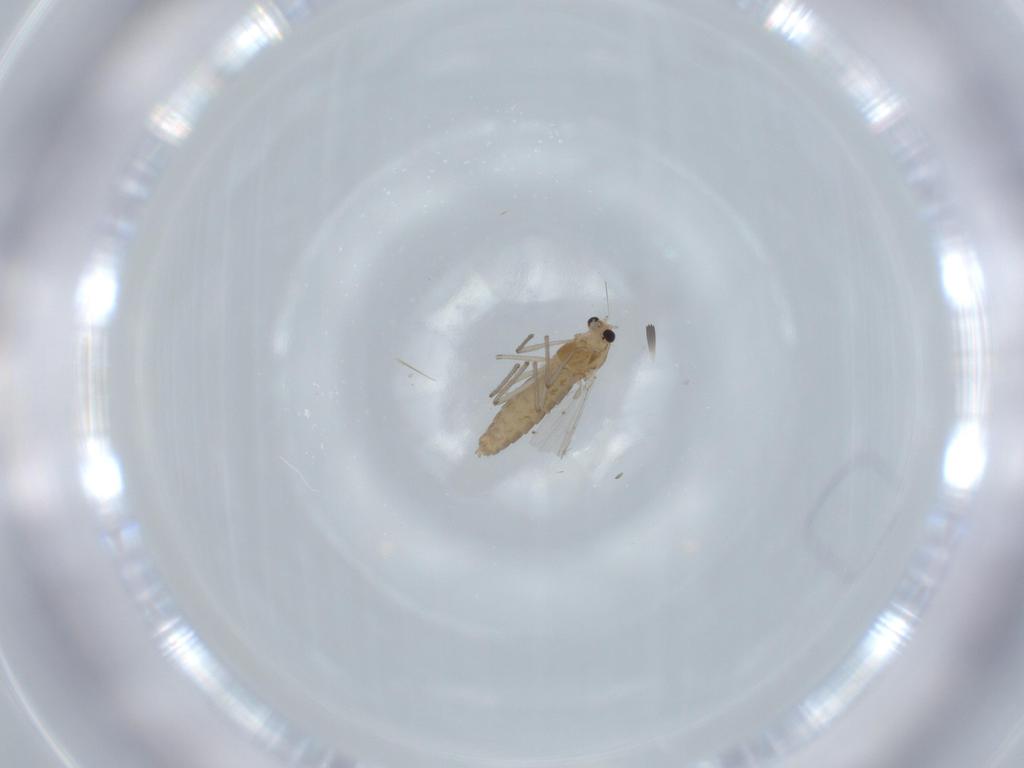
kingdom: Animalia
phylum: Arthropoda
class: Insecta
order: Diptera
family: Chironomidae
